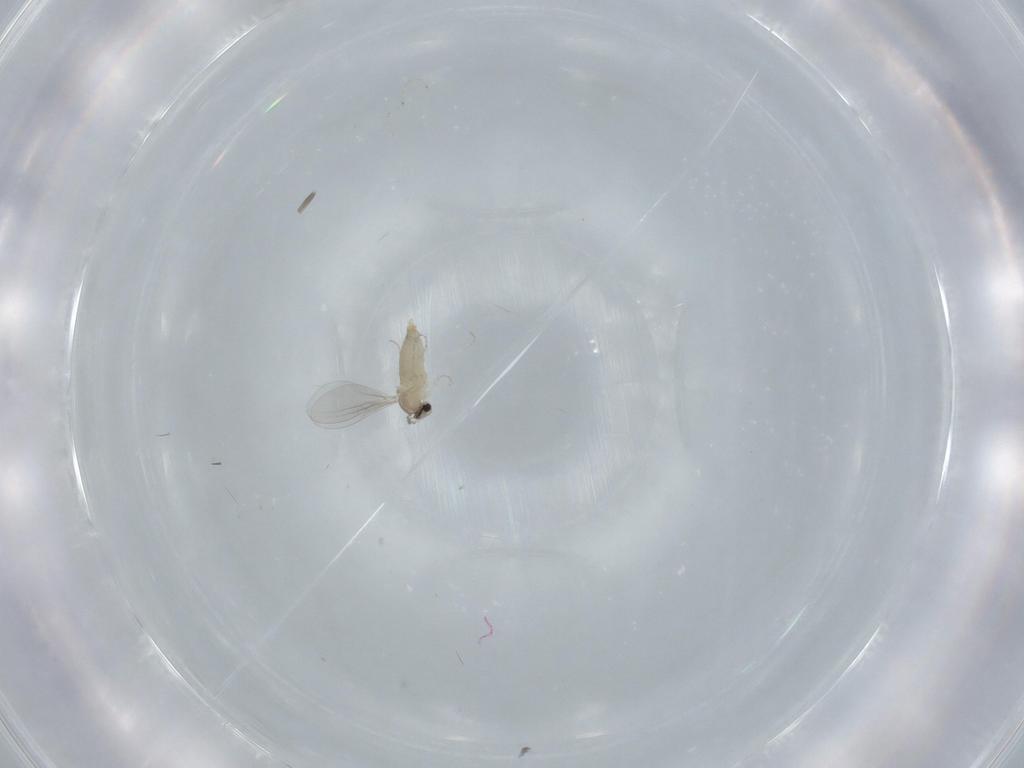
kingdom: Animalia
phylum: Arthropoda
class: Insecta
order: Diptera
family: Cecidomyiidae
